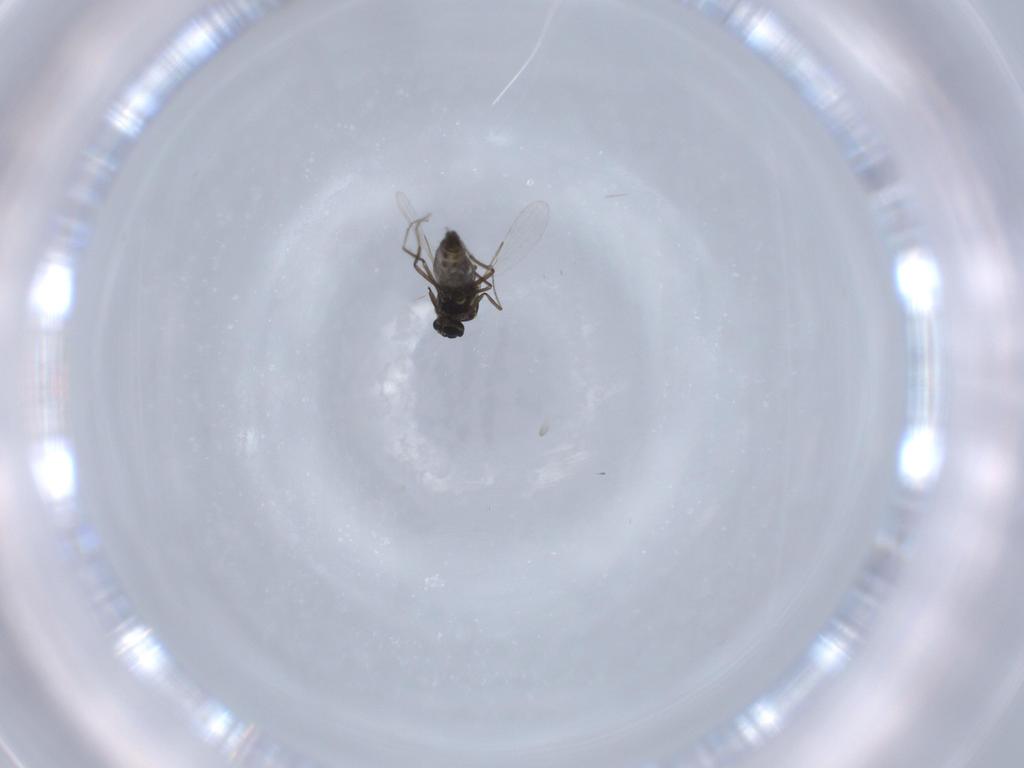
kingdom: Animalia
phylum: Arthropoda
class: Insecta
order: Diptera
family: Ceratopogonidae
